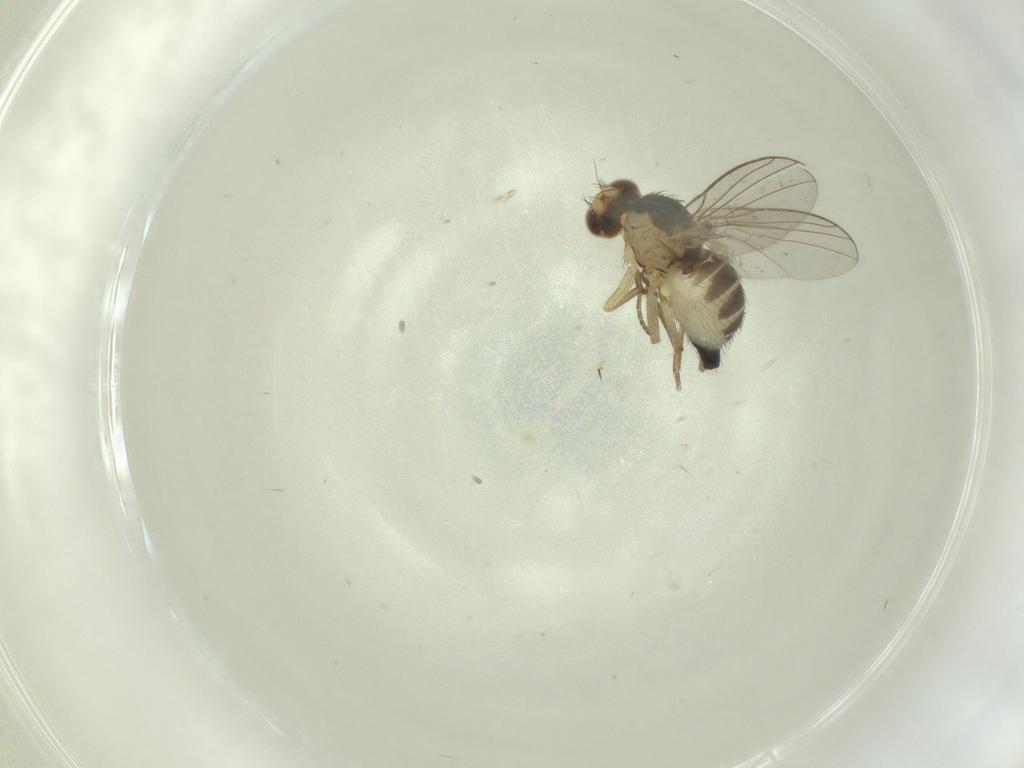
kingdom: Animalia
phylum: Arthropoda
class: Insecta
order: Diptera
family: Agromyzidae
